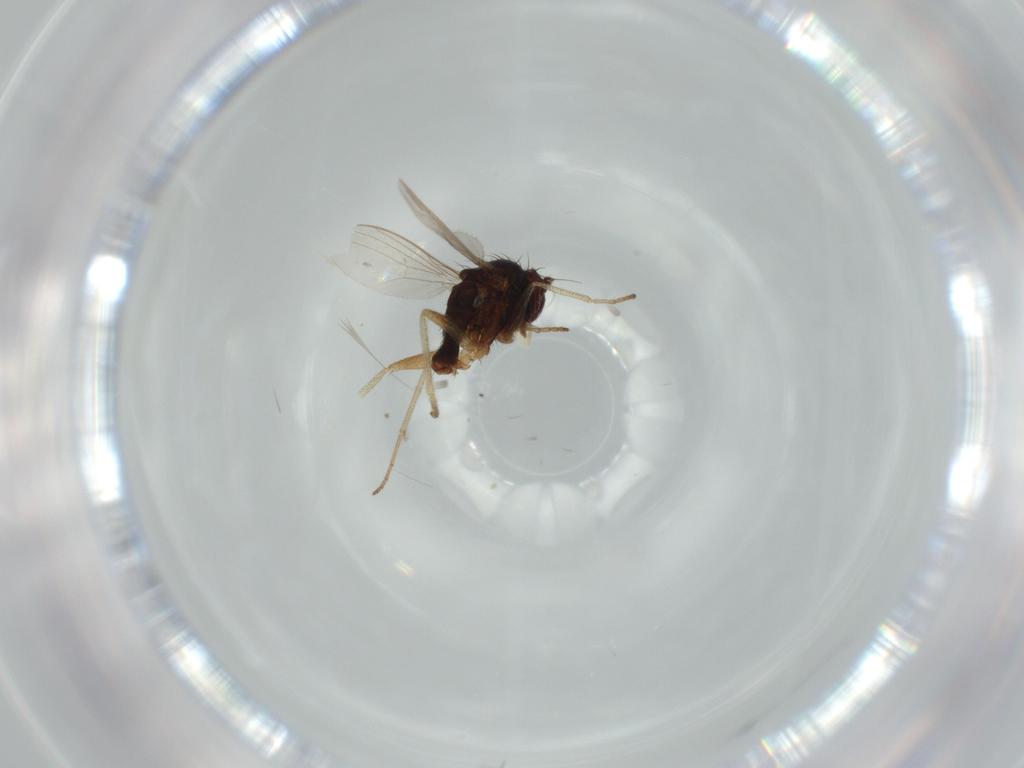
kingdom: Animalia
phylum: Arthropoda
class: Insecta
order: Diptera
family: Dolichopodidae
